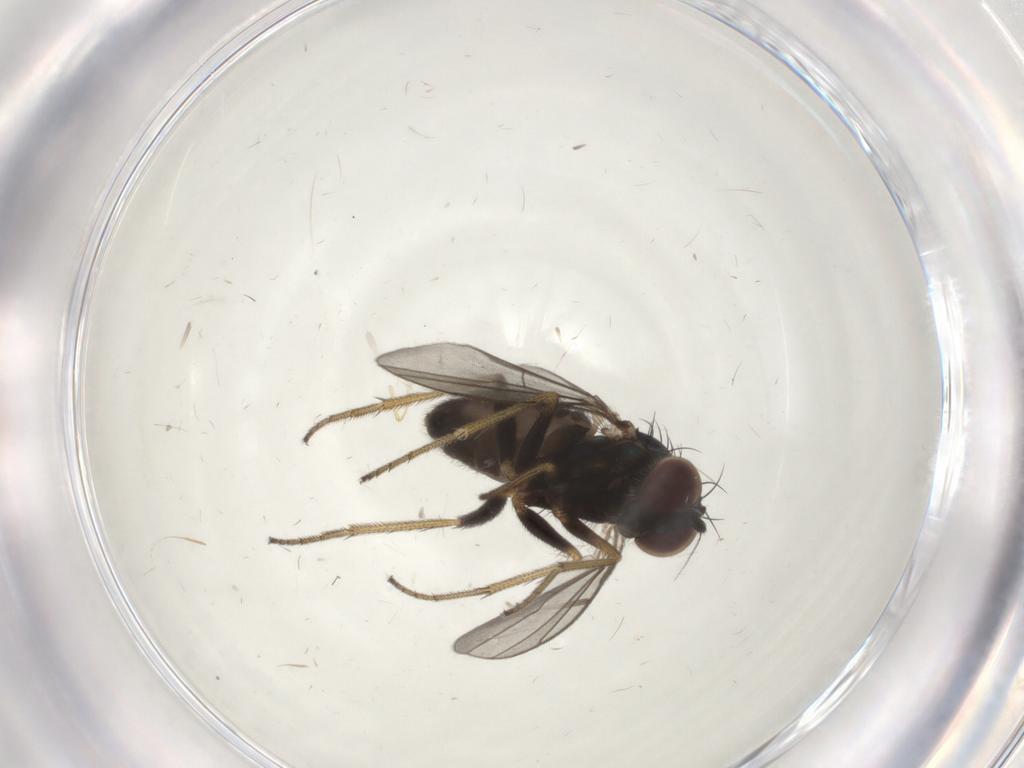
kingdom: Animalia
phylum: Arthropoda
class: Insecta
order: Diptera
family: Dolichopodidae
